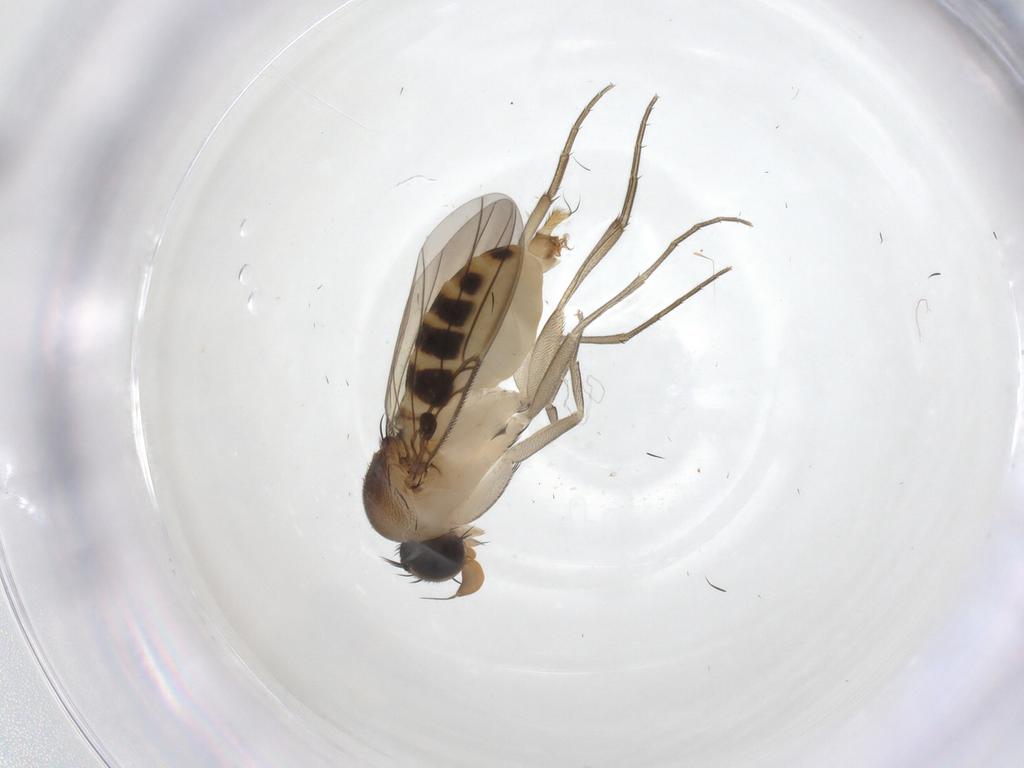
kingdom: Animalia
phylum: Arthropoda
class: Insecta
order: Diptera
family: Phoridae
